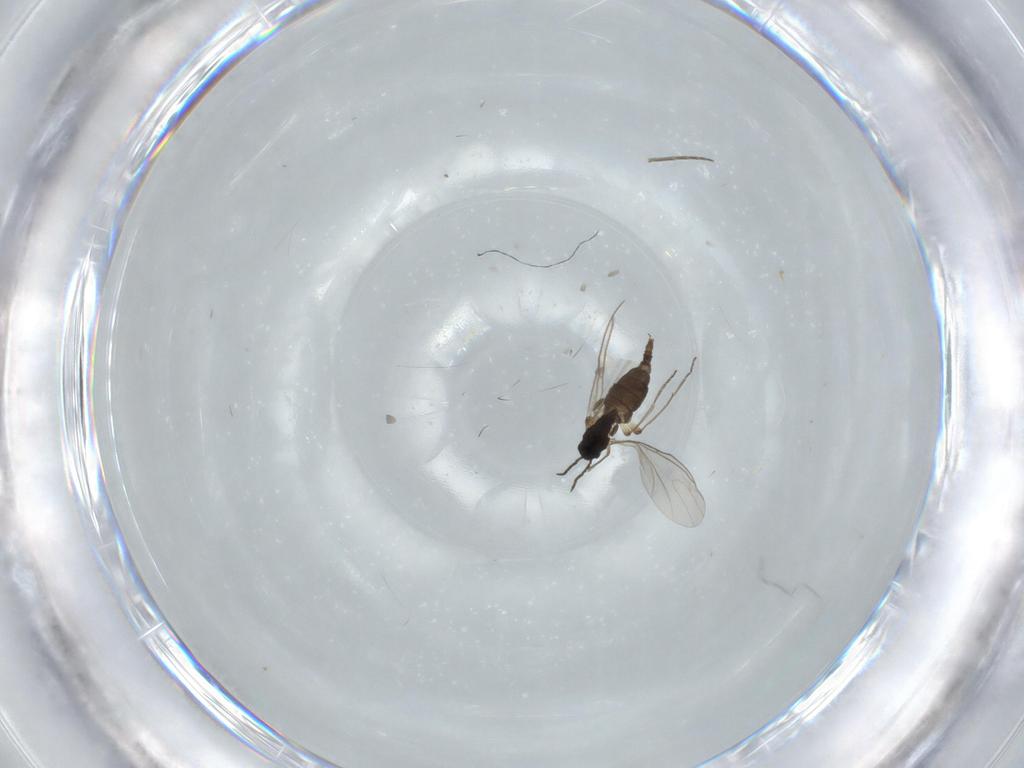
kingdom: Animalia
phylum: Arthropoda
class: Insecta
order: Diptera
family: Sciaridae
